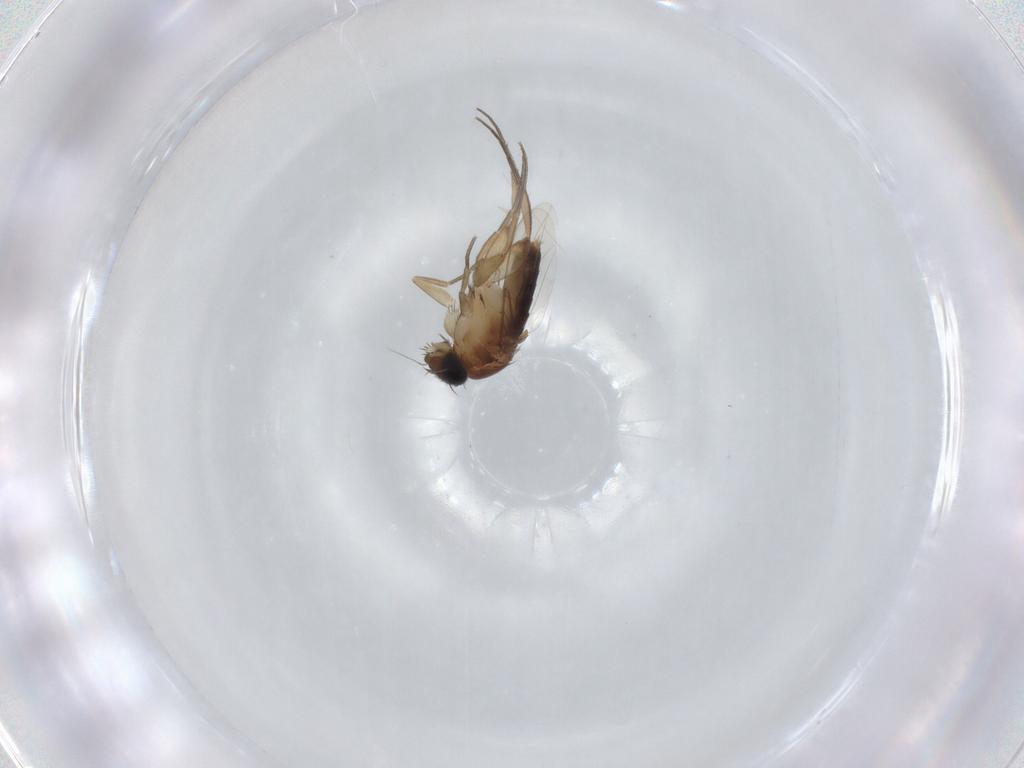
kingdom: Animalia
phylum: Arthropoda
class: Insecta
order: Diptera
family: Phoridae
